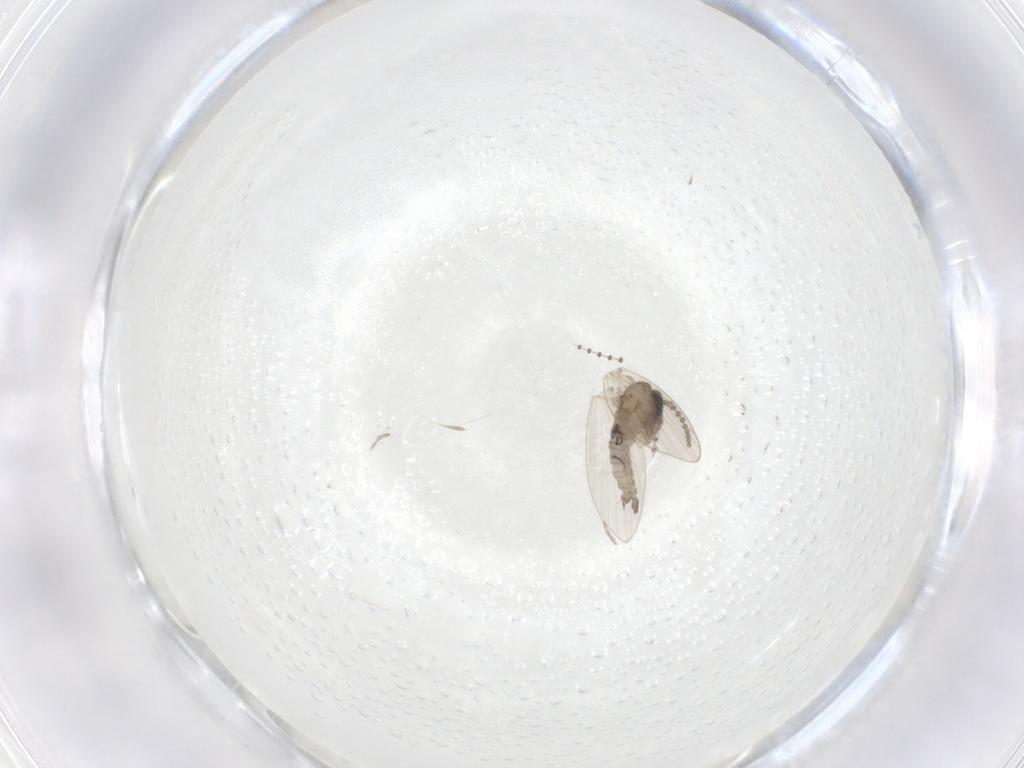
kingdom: Animalia
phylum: Arthropoda
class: Insecta
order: Diptera
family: Psychodidae
